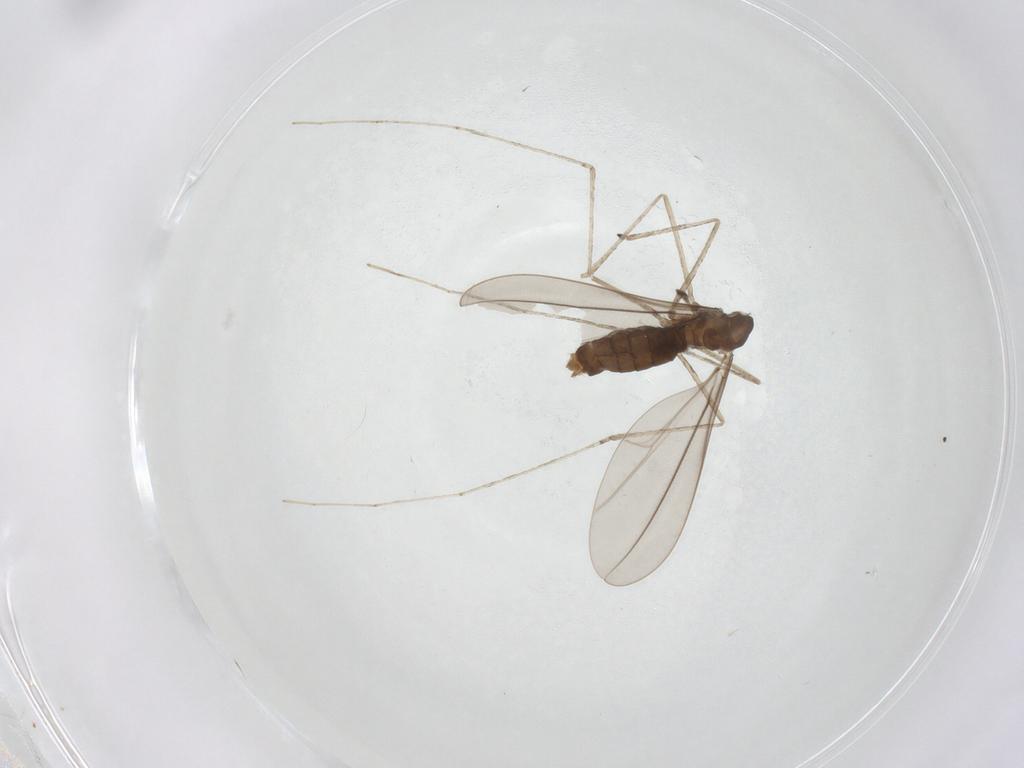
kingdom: Animalia
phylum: Arthropoda
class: Insecta
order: Diptera
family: Cecidomyiidae
